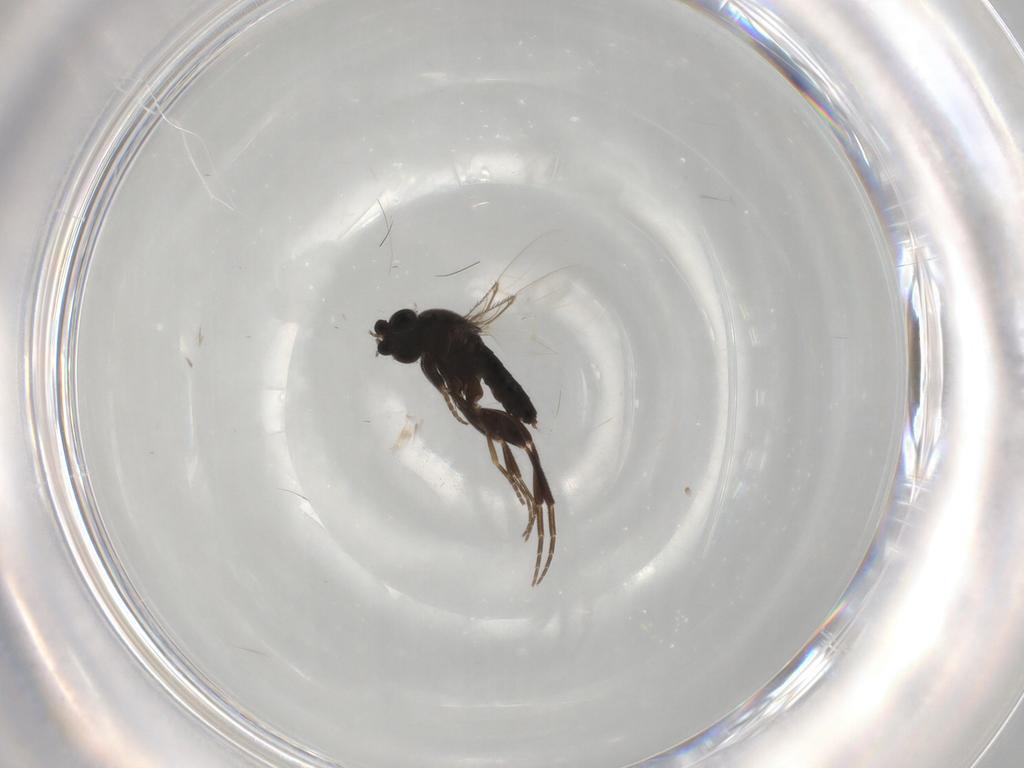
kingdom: Animalia
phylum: Arthropoda
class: Insecta
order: Diptera
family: Phoridae
